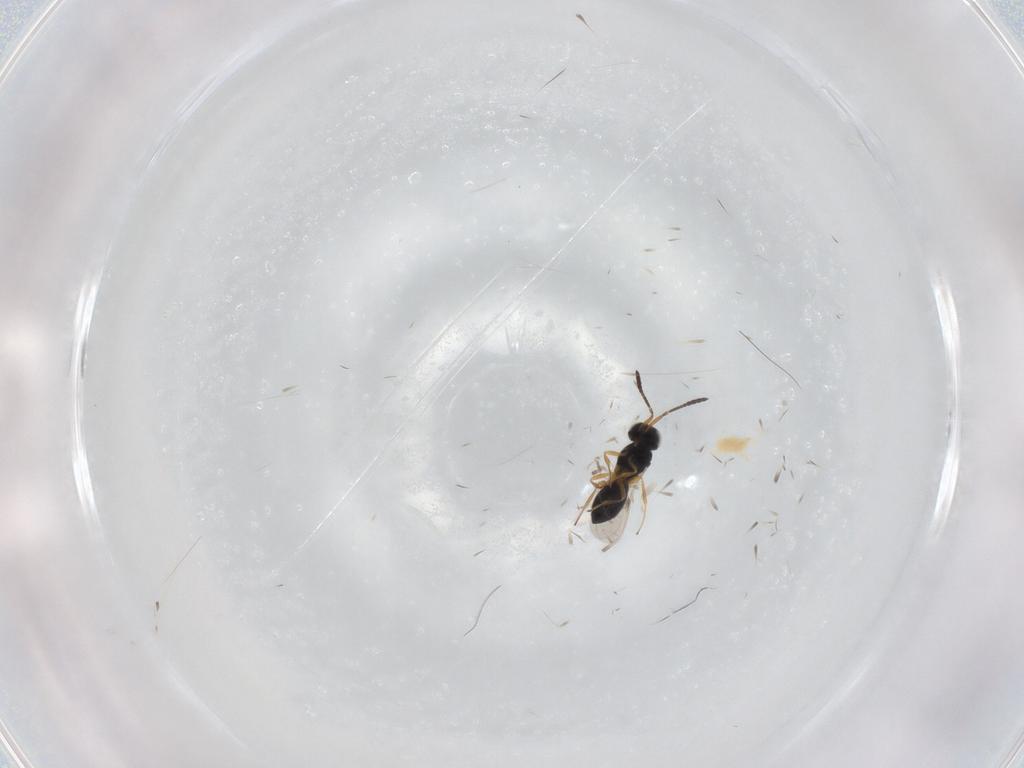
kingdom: Animalia
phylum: Arthropoda
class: Insecta
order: Hymenoptera
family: Scelionidae
